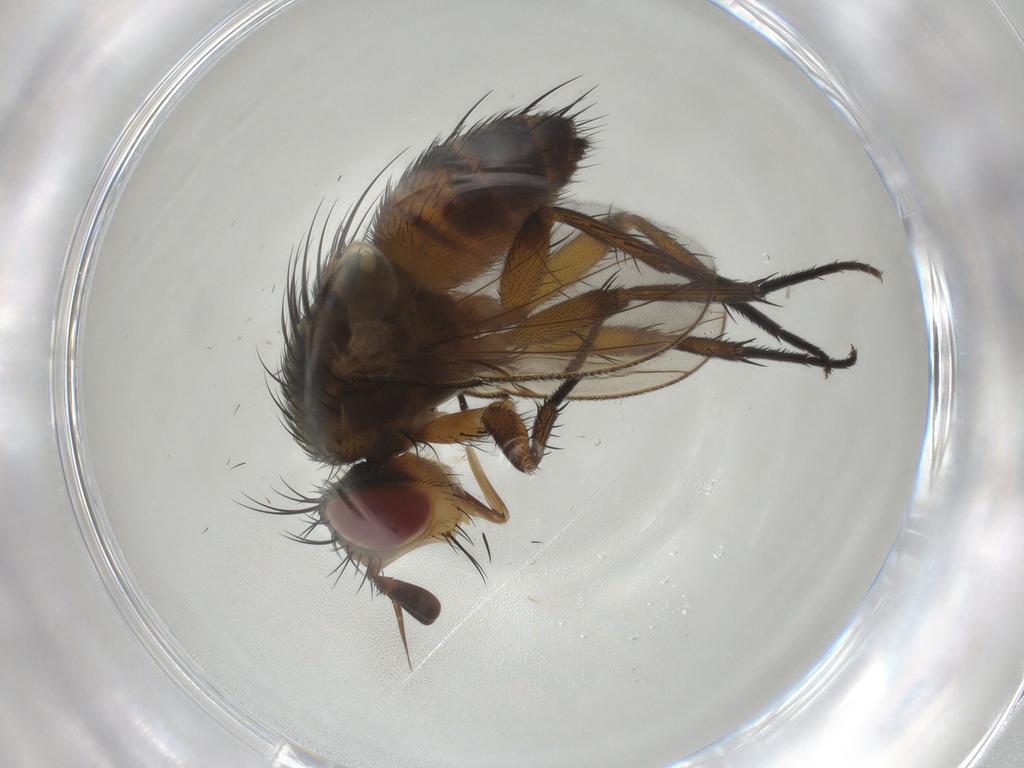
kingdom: Animalia
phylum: Arthropoda
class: Insecta
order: Diptera
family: Tachinidae
